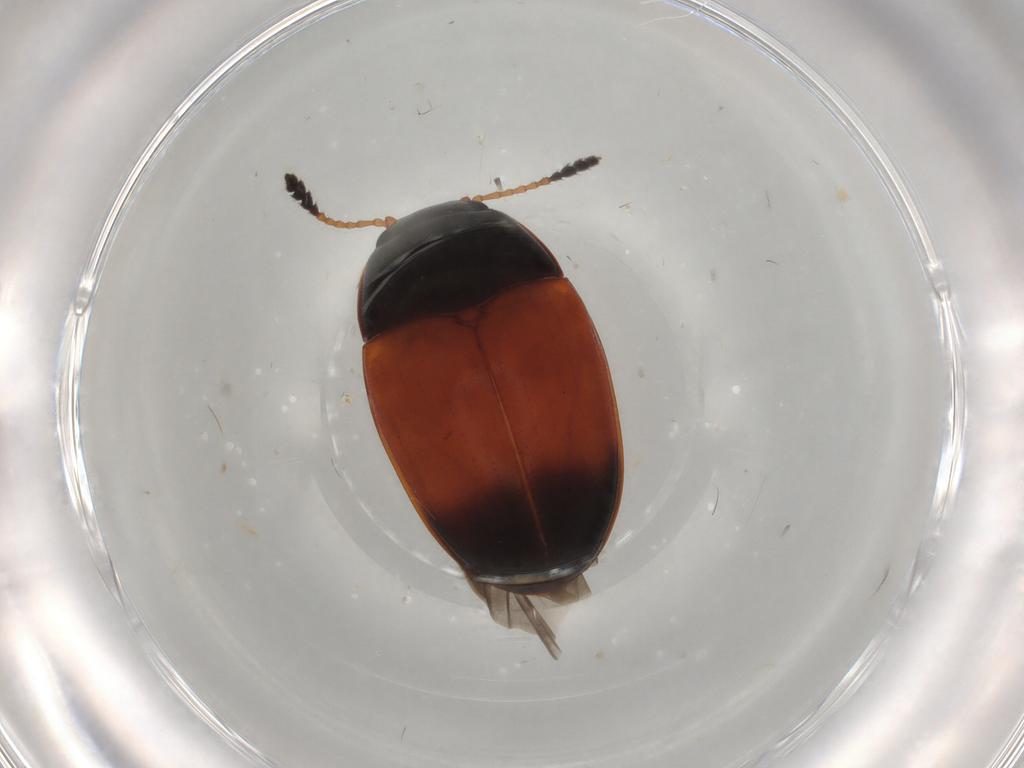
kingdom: Animalia
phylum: Arthropoda
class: Insecta
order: Coleoptera
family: Erotylidae
